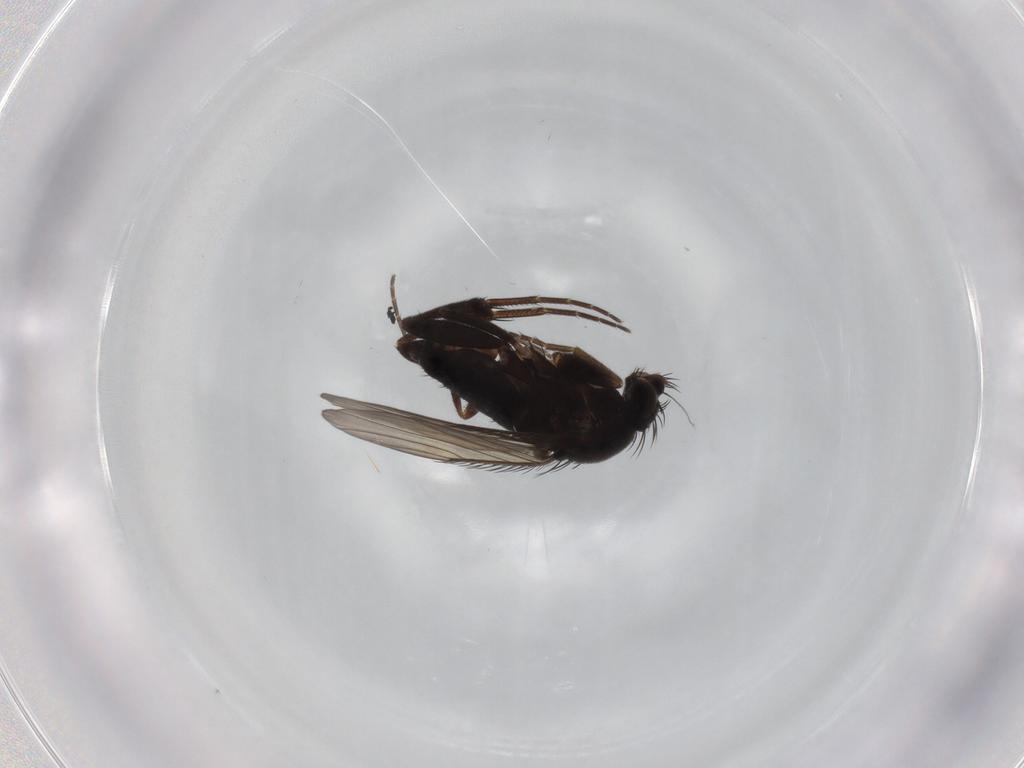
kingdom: Animalia
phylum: Arthropoda
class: Insecta
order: Diptera
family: Phoridae
